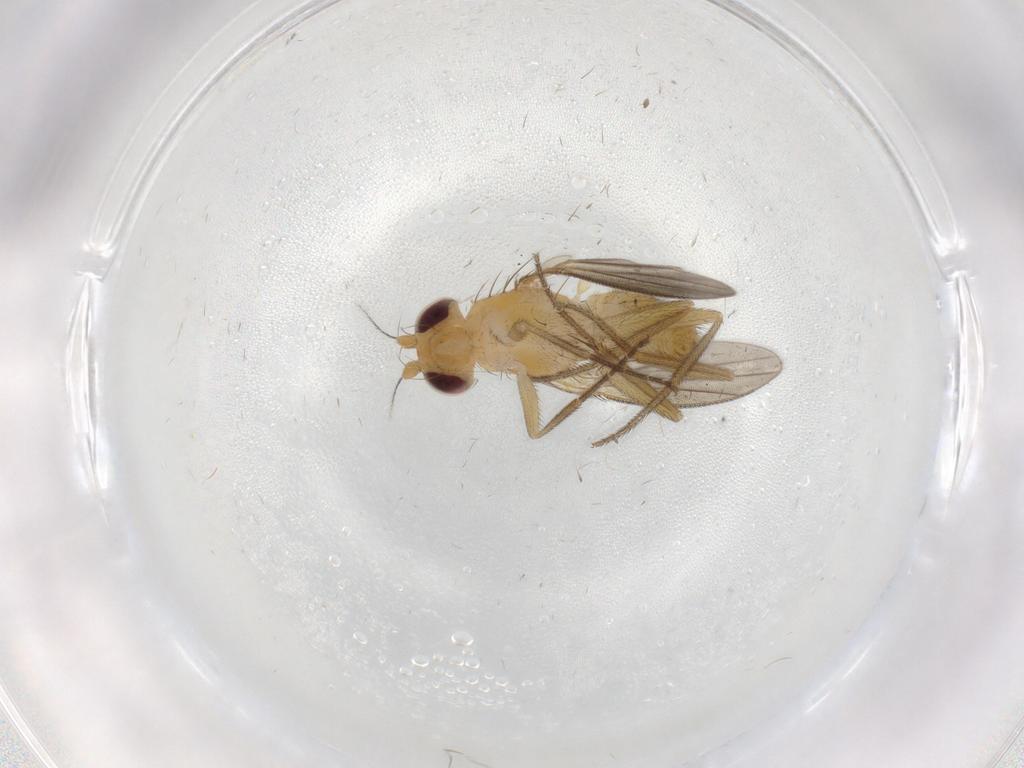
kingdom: Animalia
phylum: Arthropoda
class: Insecta
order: Diptera
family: Clusiidae
